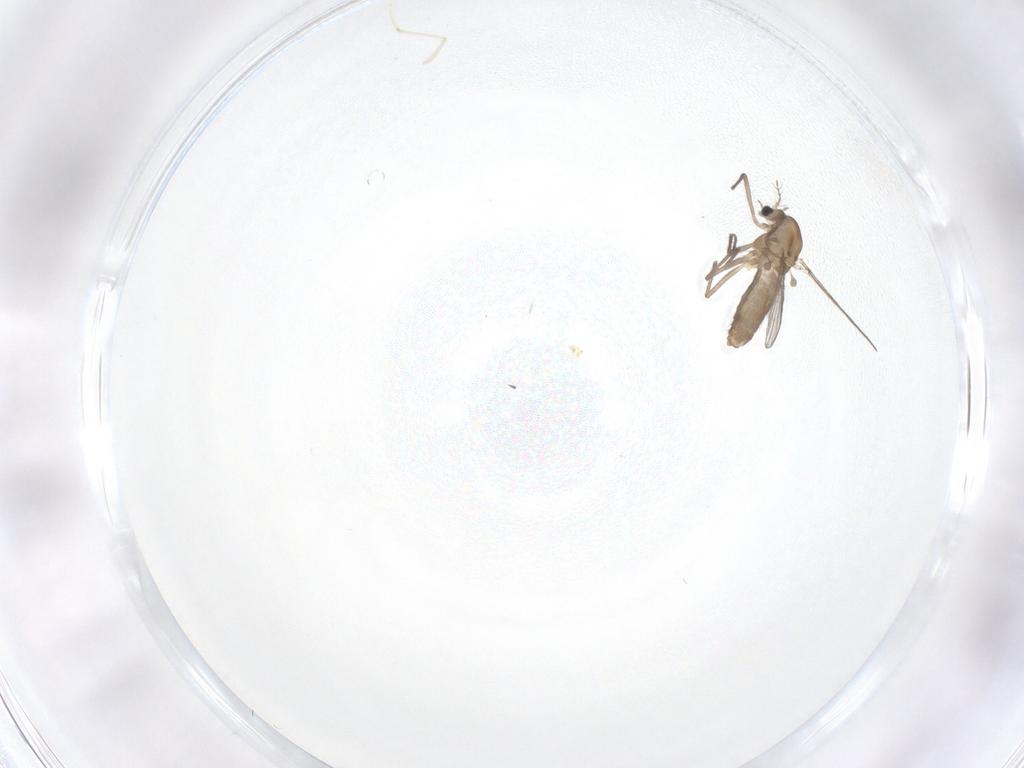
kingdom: Animalia
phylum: Arthropoda
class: Insecta
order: Diptera
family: Chironomidae
